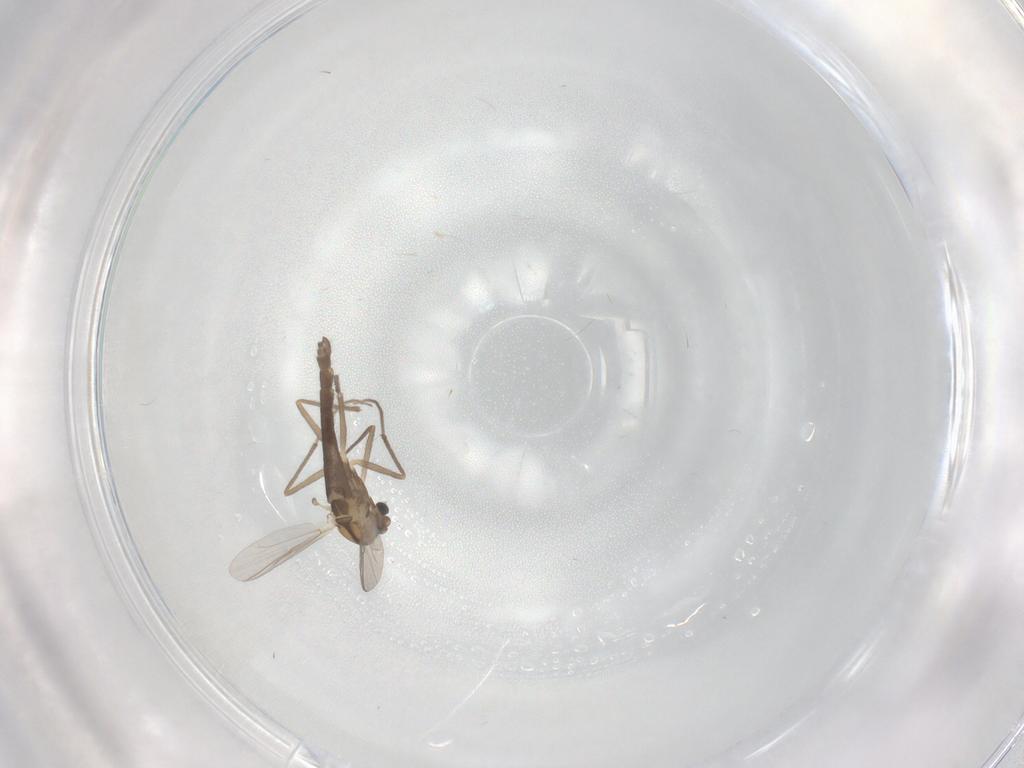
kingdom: Animalia
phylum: Arthropoda
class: Insecta
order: Diptera
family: Chironomidae
